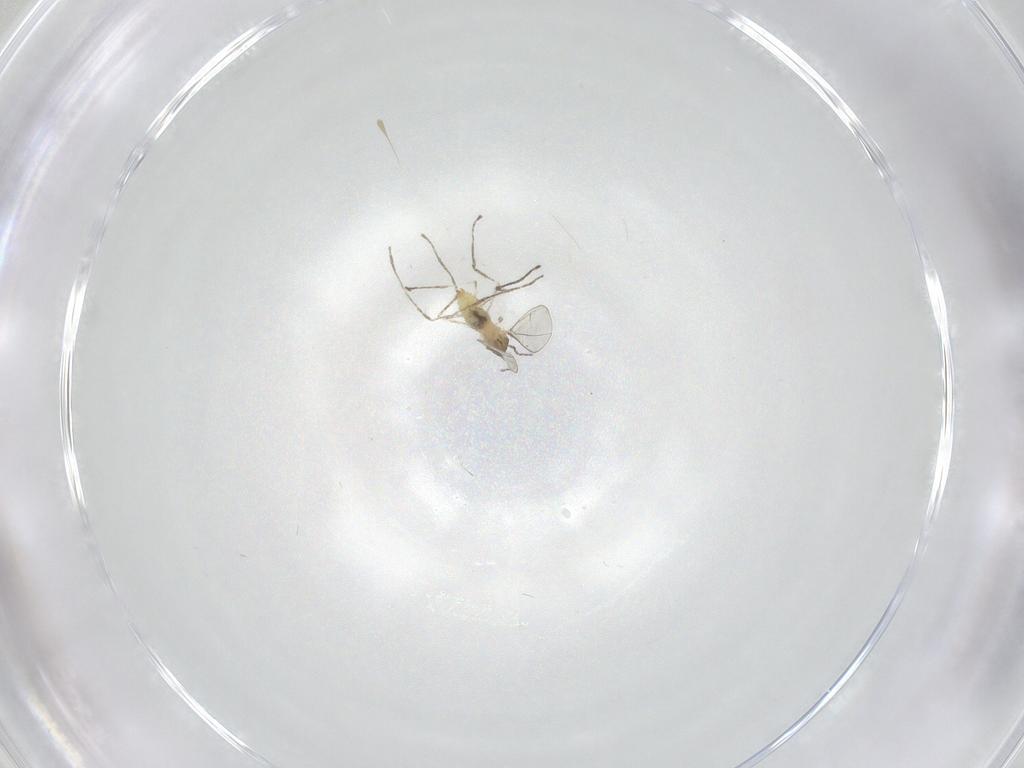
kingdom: Animalia
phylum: Arthropoda
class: Insecta
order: Diptera
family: Cecidomyiidae
